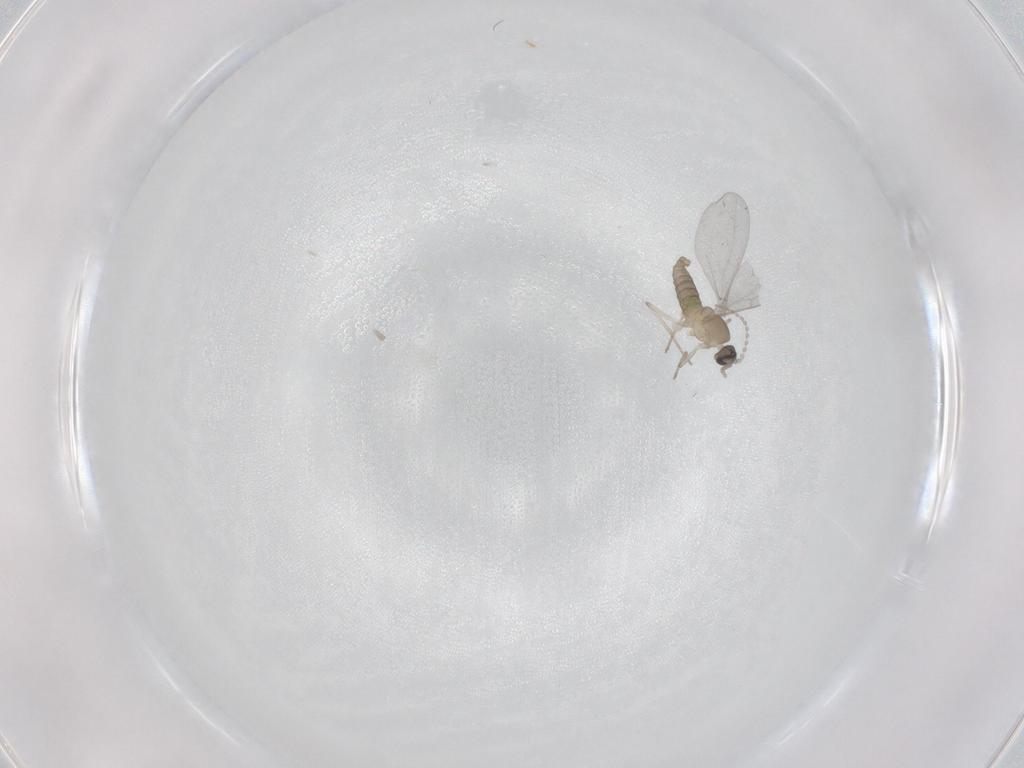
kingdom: Animalia
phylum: Arthropoda
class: Insecta
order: Diptera
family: Cecidomyiidae
